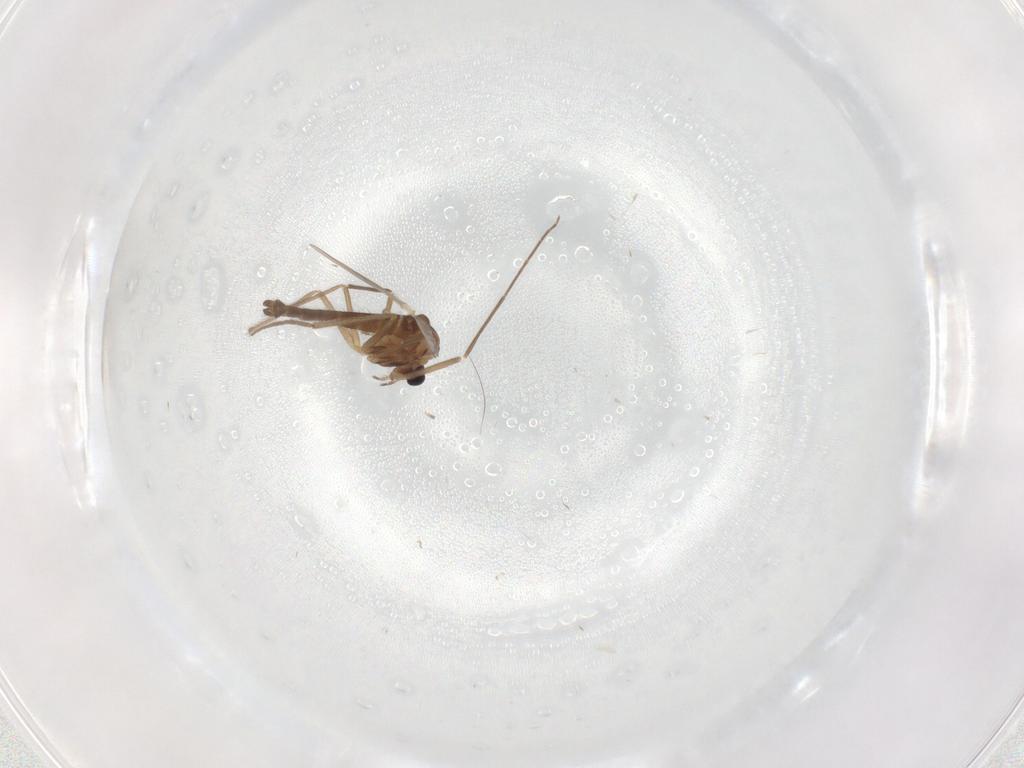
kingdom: Animalia
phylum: Arthropoda
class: Insecta
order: Diptera
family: Chironomidae
